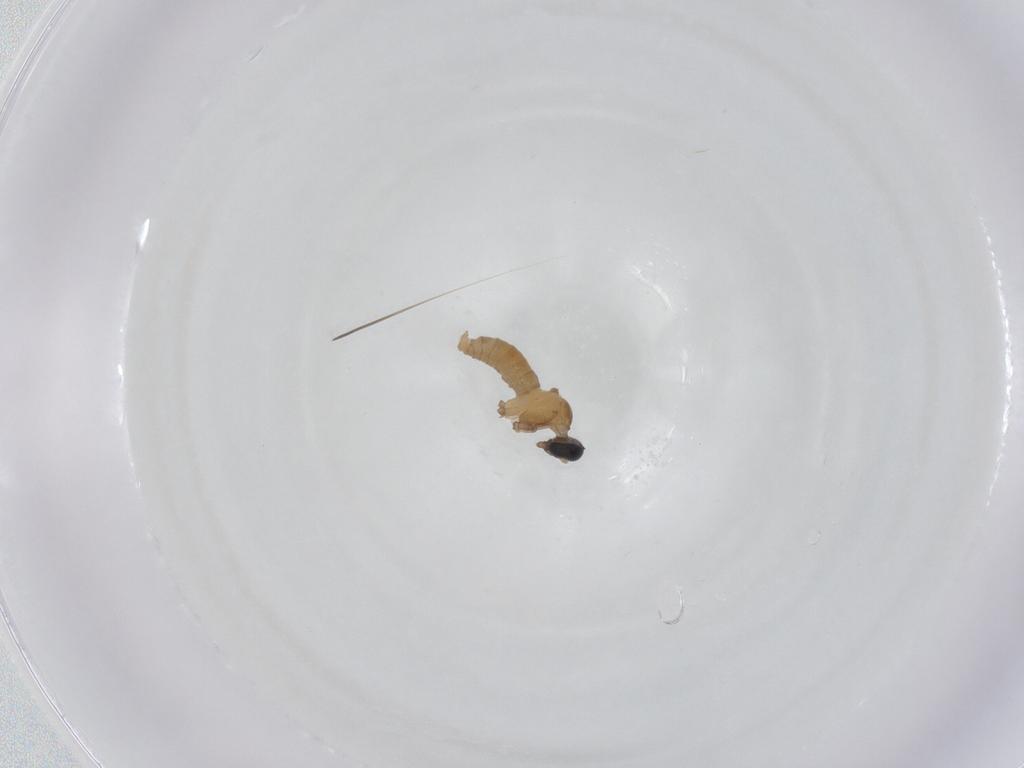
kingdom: Animalia
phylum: Arthropoda
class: Insecta
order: Diptera
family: Cecidomyiidae
